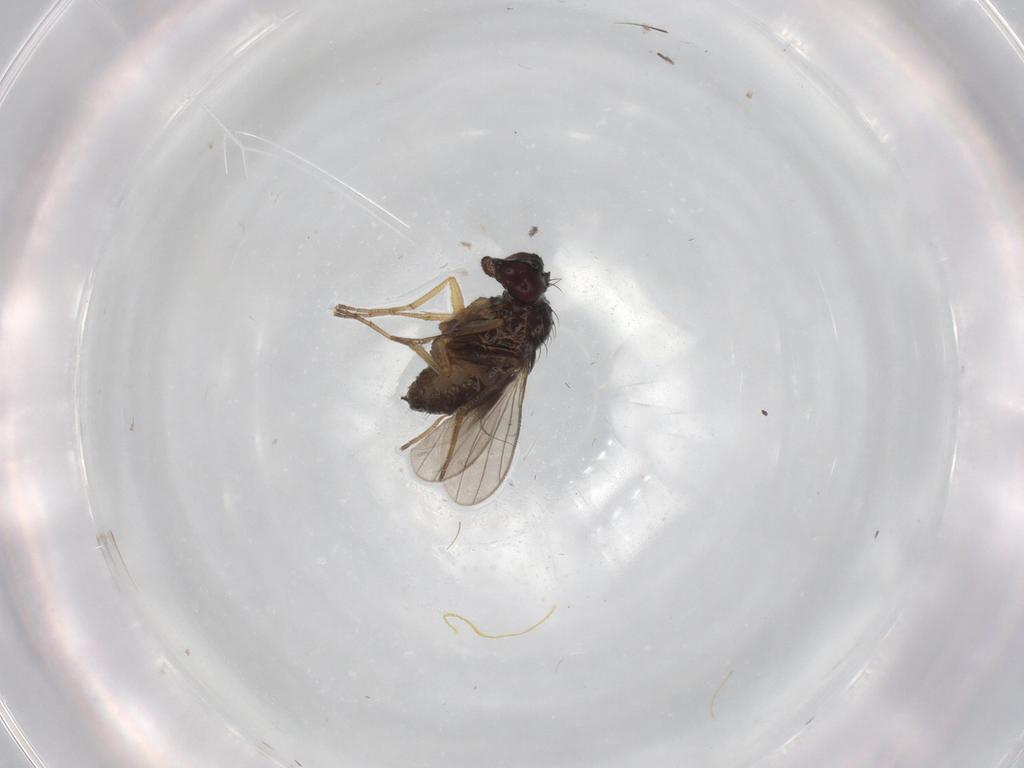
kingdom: Animalia
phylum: Arthropoda
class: Insecta
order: Diptera
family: Dolichopodidae
